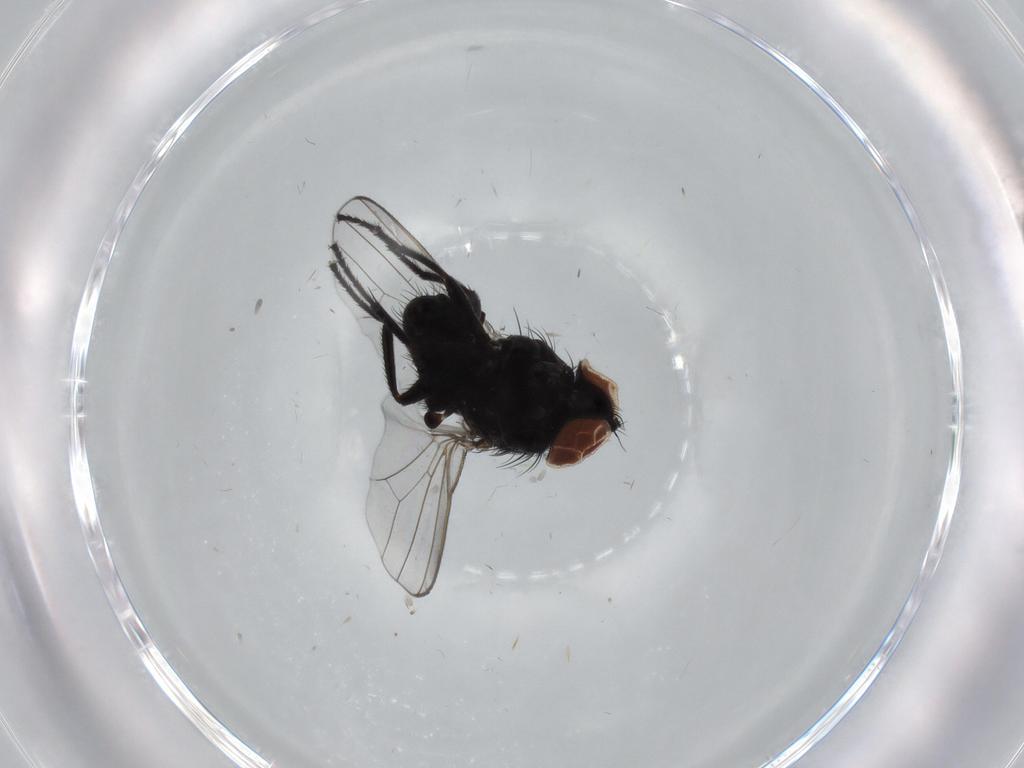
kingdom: Animalia
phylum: Arthropoda
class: Insecta
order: Diptera
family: Milichiidae
